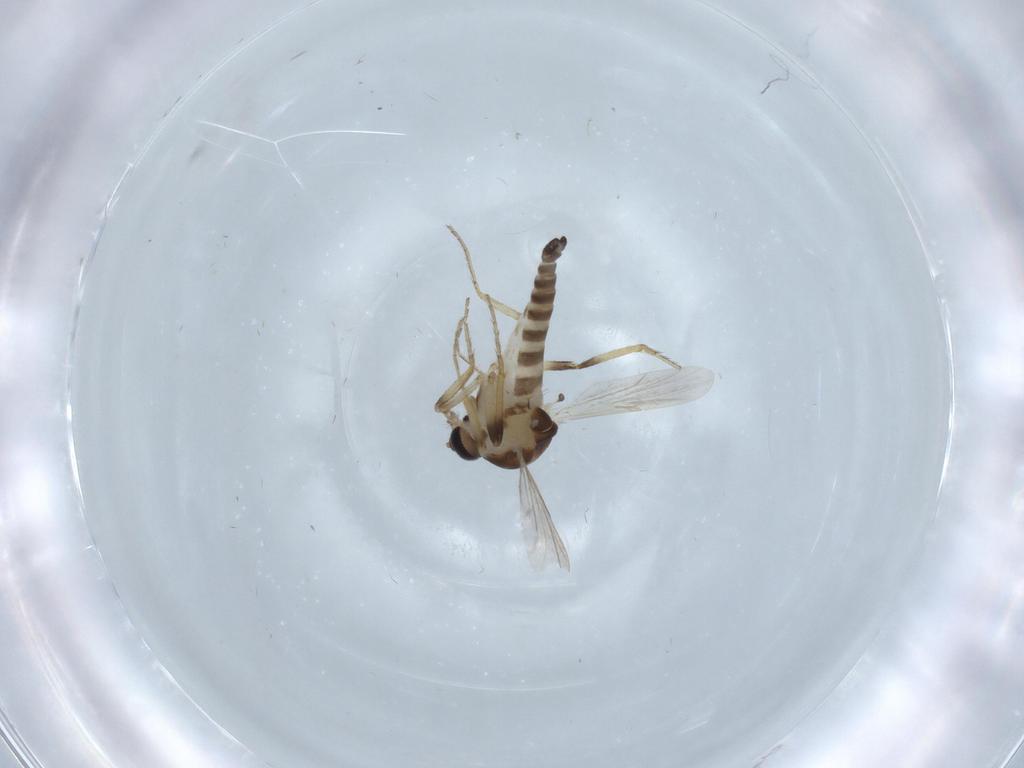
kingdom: Animalia
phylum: Arthropoda
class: Insecta
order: Diptera
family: Ceratopogonidae
